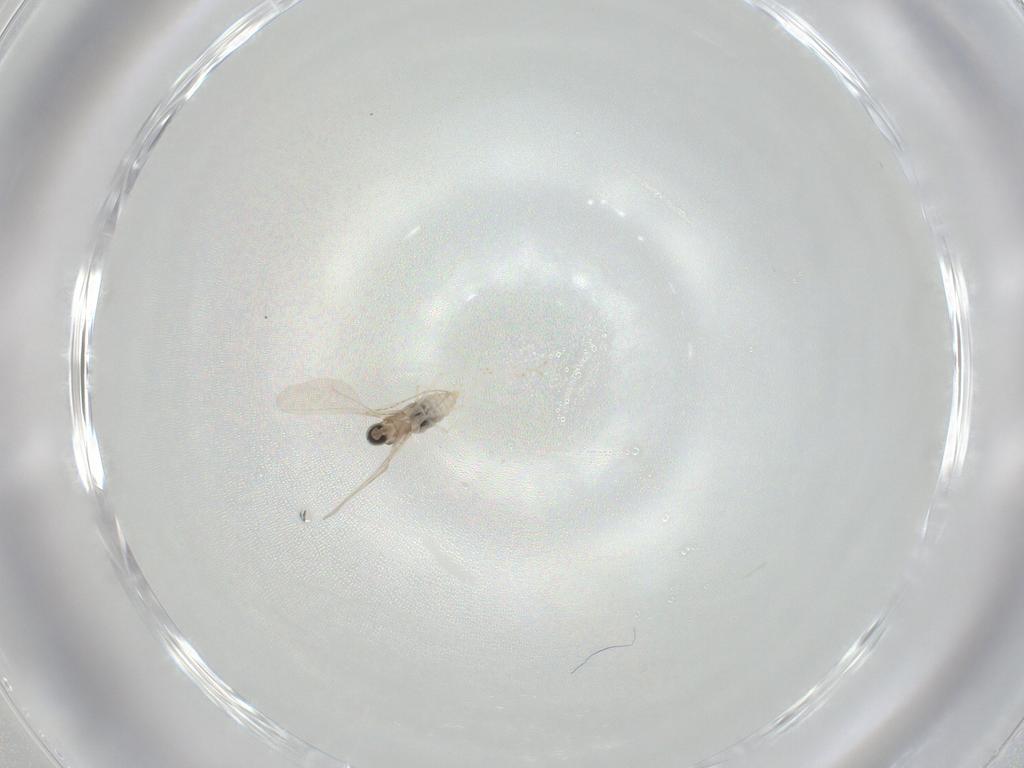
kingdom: Animalia
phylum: Arthropoda
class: Insecta
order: Diptera
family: Cecidomyiidae
